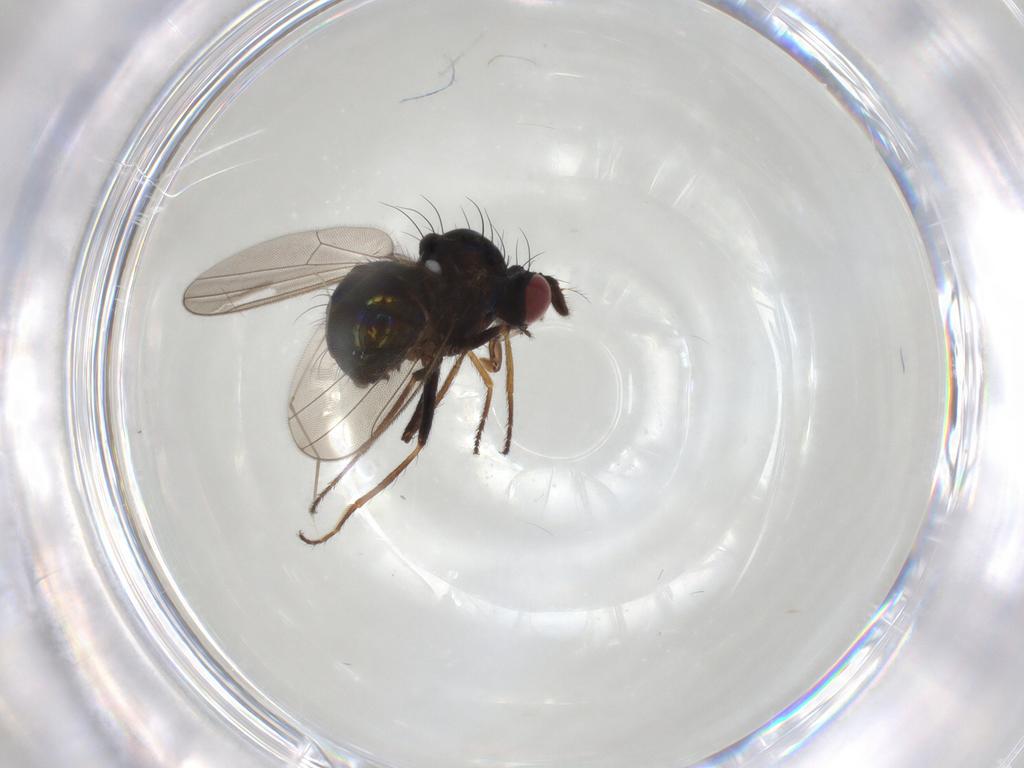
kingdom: Animalia
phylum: Arthropoda
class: Insecta
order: Diptera
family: Ephydridae
